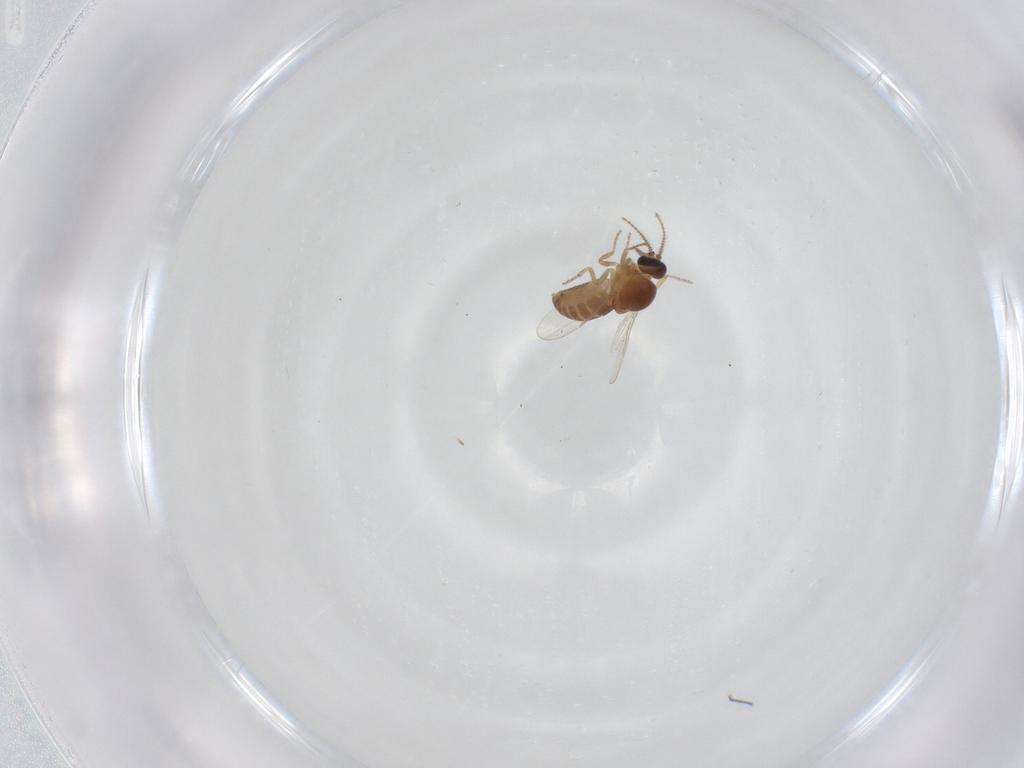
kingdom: Animalia
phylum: Arthropoda
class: Insecta
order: Diptera
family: Ceratopogonidae
